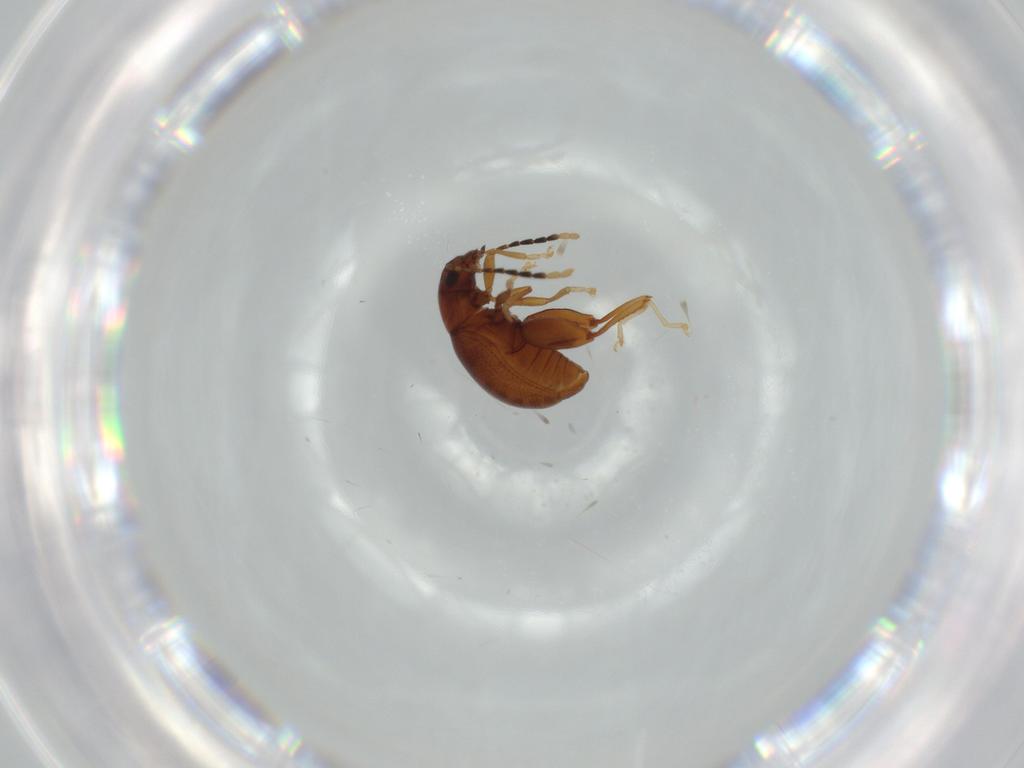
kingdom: Animalia
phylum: Arthropoda
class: Insecta
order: Coleoptera
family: Chrysomelidae
